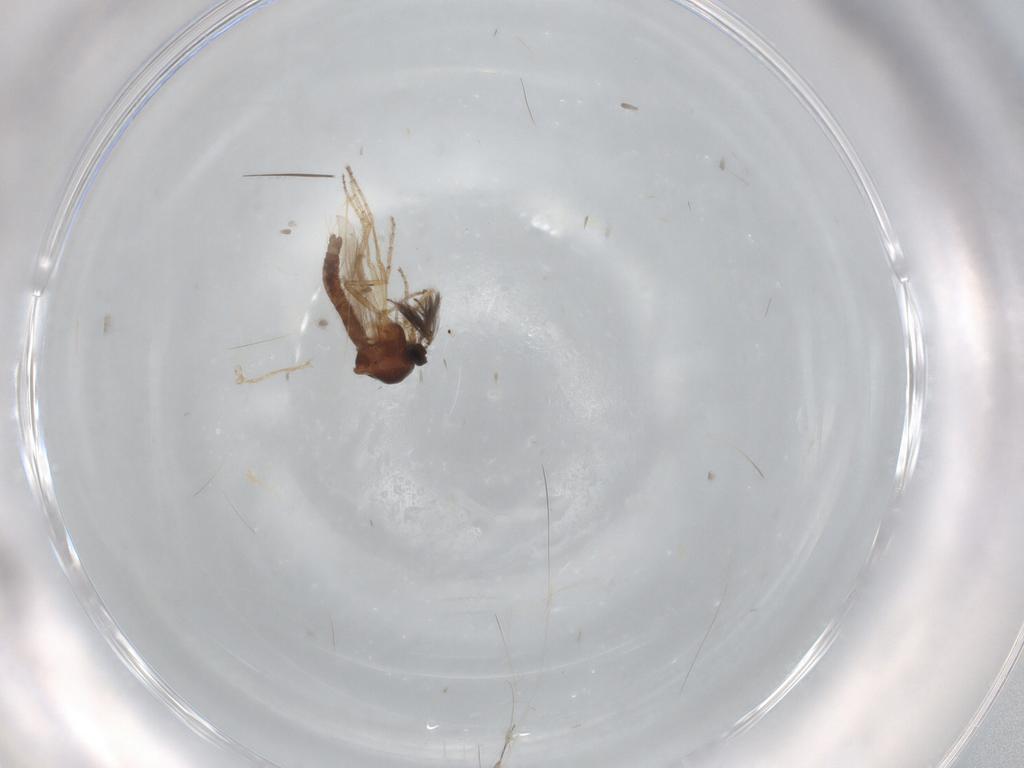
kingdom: Animalia
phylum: Arthropoda
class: Insecta
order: Diptera
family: Ceratopogonidae
